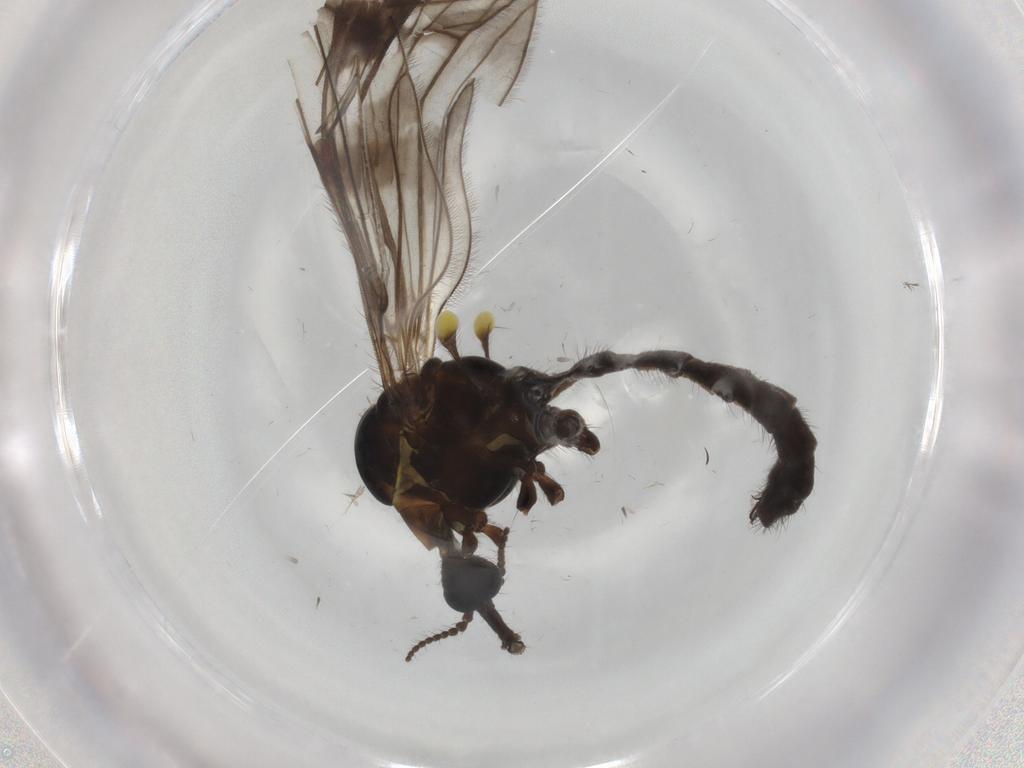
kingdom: Animalia
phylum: Arthropoda
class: Insecta
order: Diptera
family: Limoniidae
